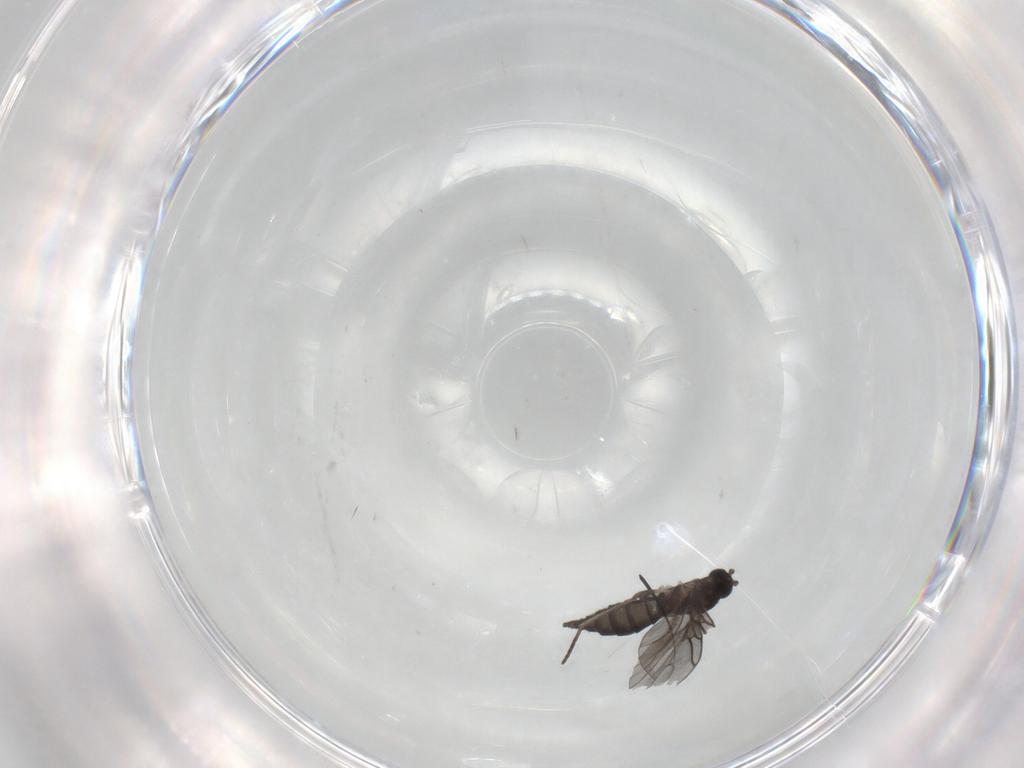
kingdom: Animalia
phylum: Arthropoda
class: Insecta
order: Diptera
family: Sciaridae
